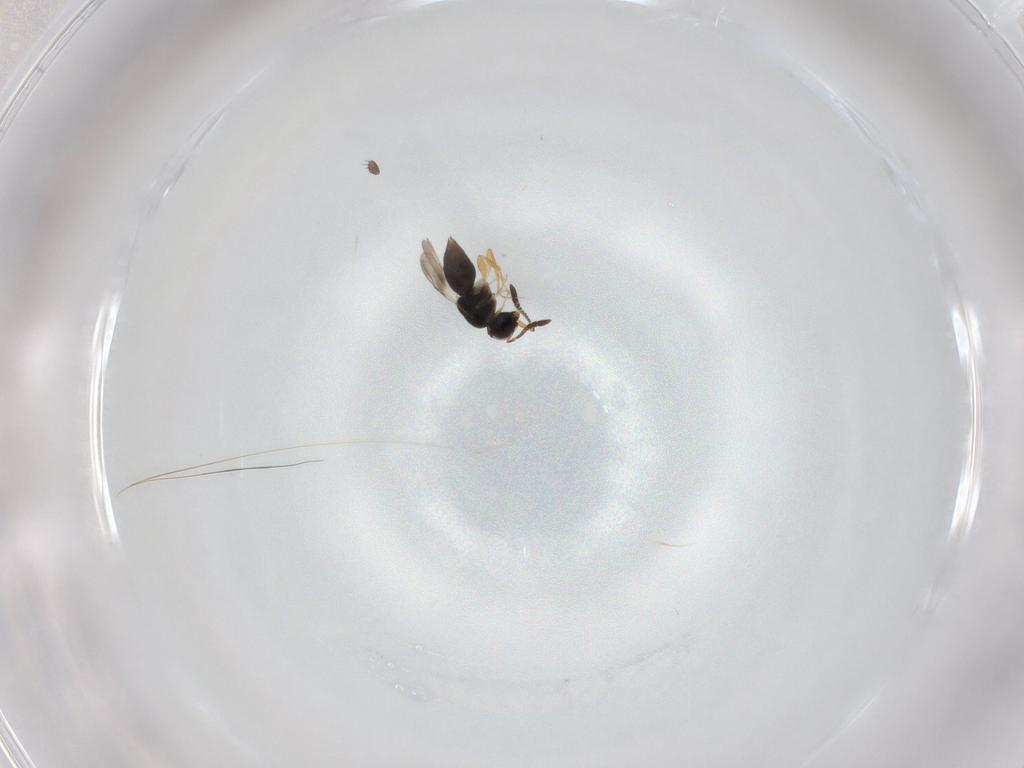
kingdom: Animalia
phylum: Arthropoda
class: Insecta
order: Hymenoptera
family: Ceraphronidae
